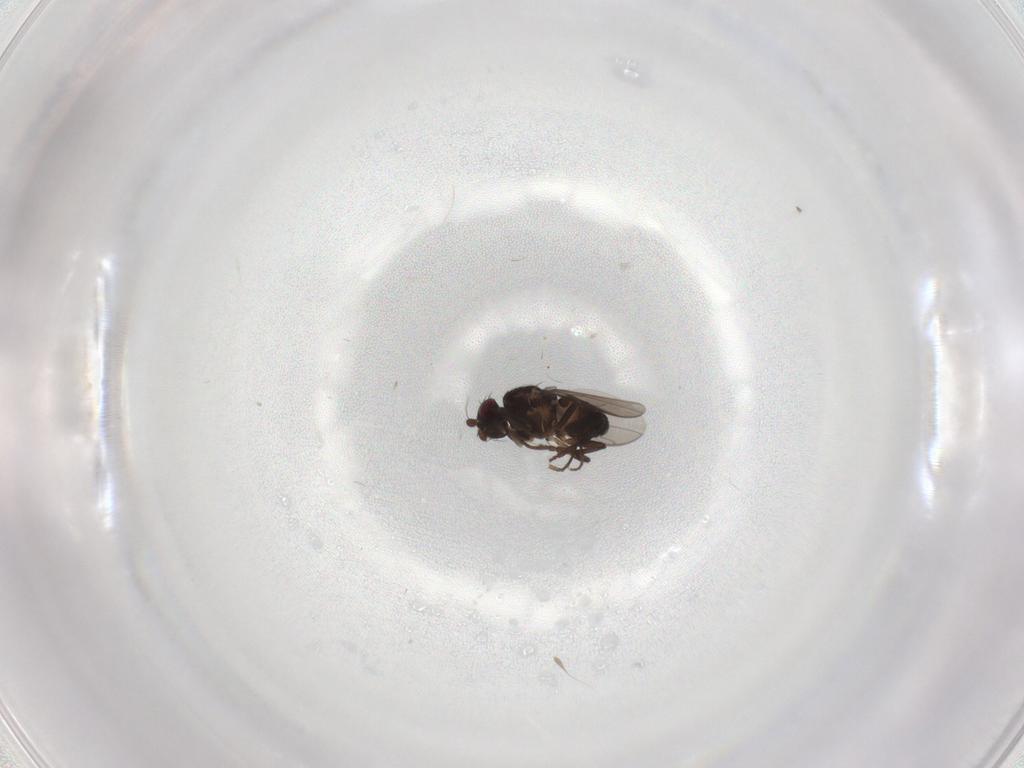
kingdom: Animalia
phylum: Arthropoda
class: Insecta
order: Diptera
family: Sphaeroceridae
